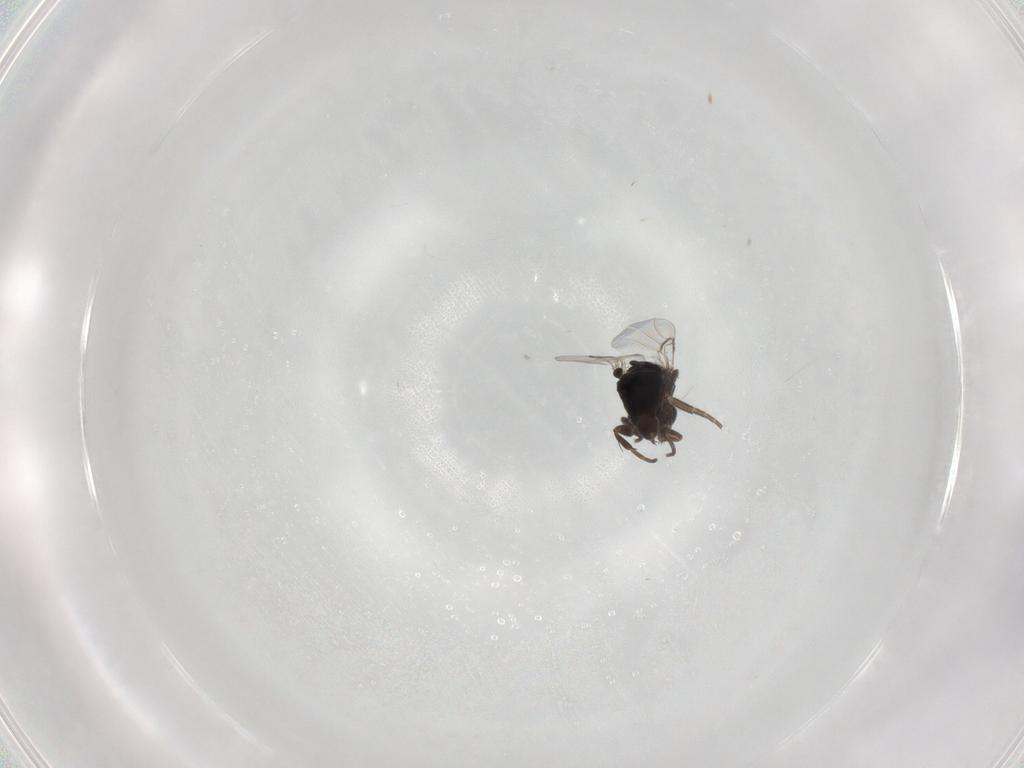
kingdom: Animalia
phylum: Arthropoda
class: Insecta
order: Diptera
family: Phoridae
